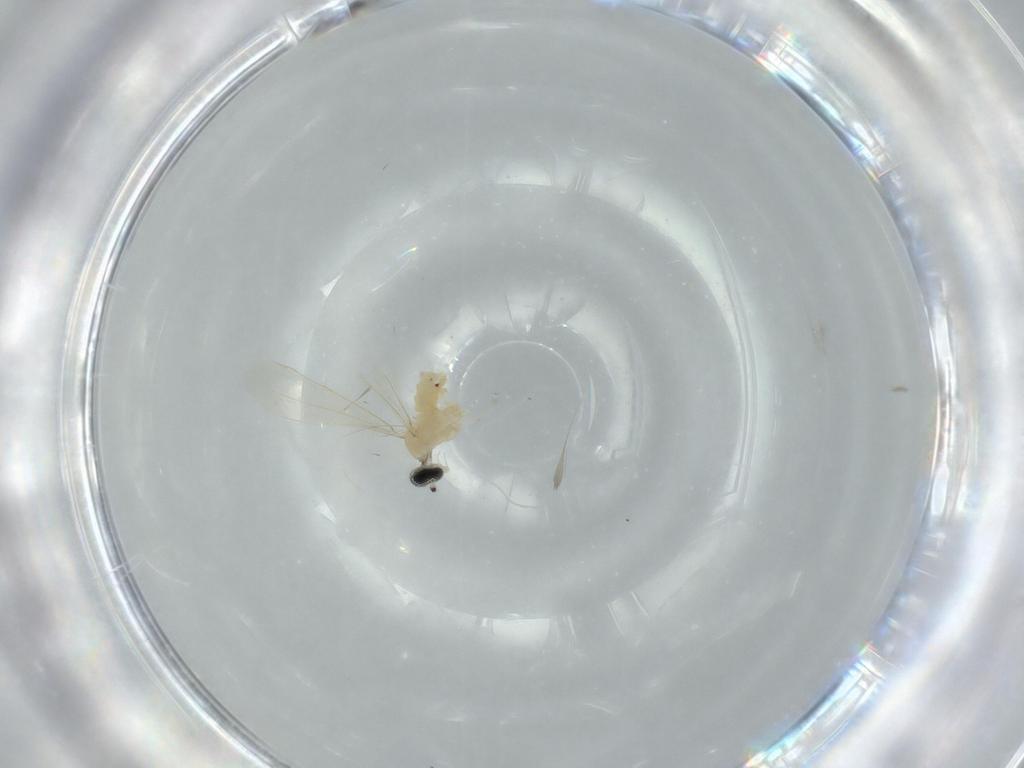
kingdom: Animalia
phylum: Arthropoda
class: Insecta
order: Diptera
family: Cecidomyiidae
